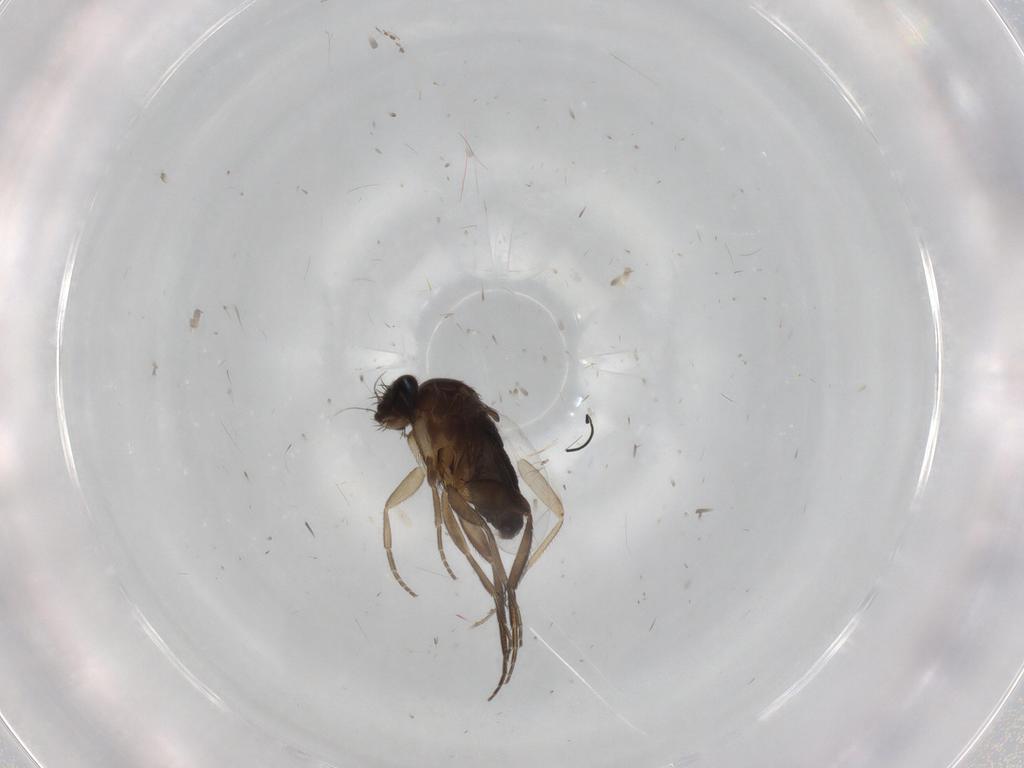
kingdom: Animalia
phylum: Arthropoda
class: Insecta
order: Diptera
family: Phoridae
